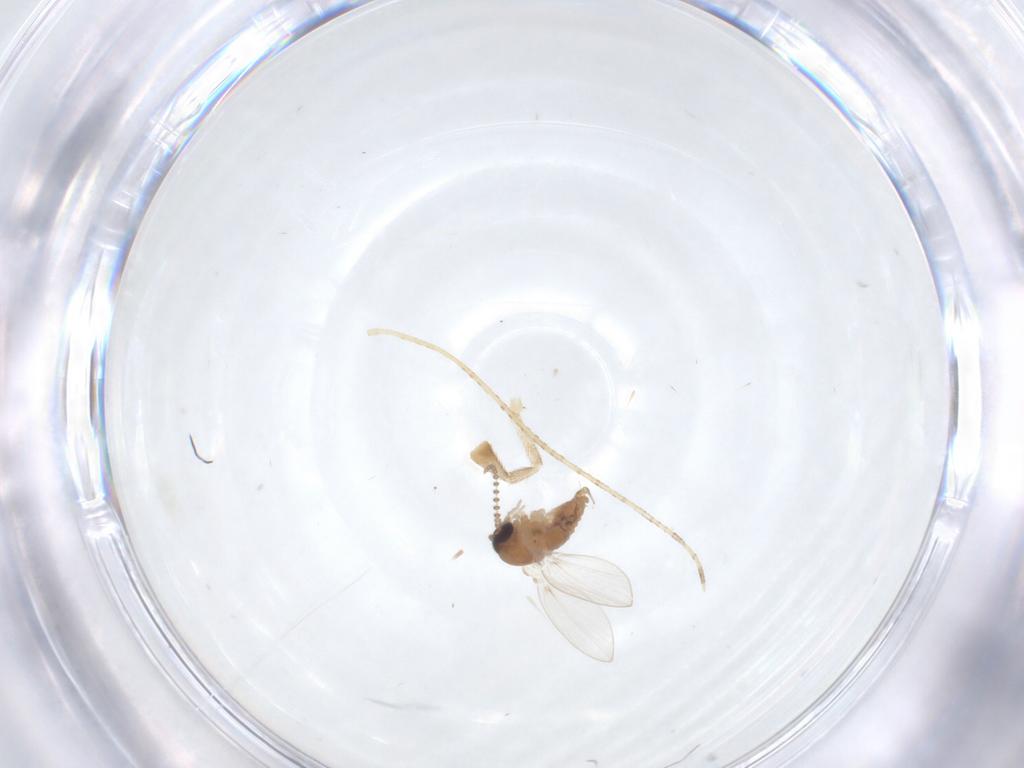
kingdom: Animalia
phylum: Arthropoda
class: Insecta
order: Diptera
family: Psychodidae
